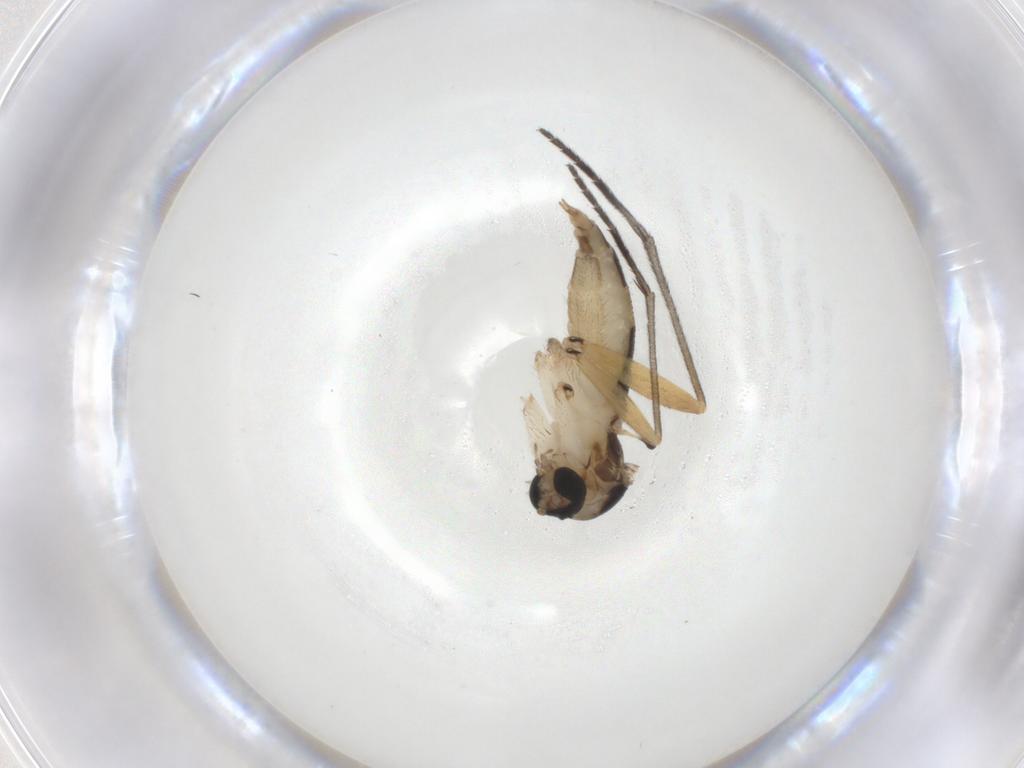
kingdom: Animalia
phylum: Arthropoda
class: Insecta
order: Diptera
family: Sciaridae
